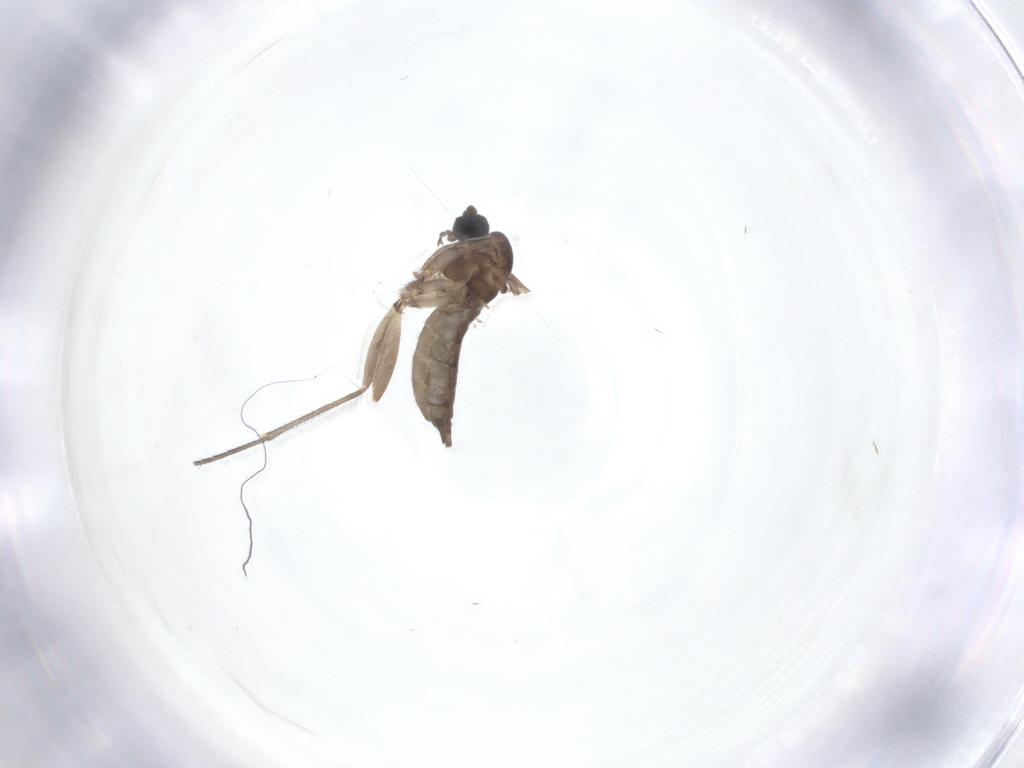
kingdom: Animalia
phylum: Arthropoda
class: Insecta
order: Diptera
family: Sciaridae
